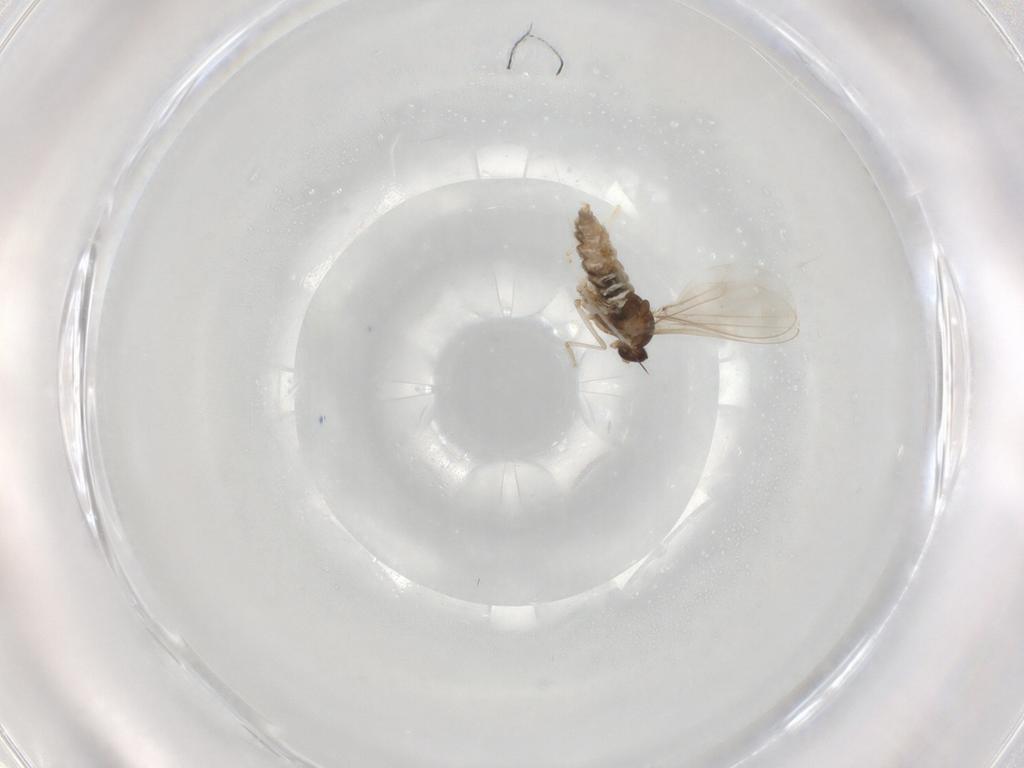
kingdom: Animalia
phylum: Arthropoda
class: Insecta
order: Diptera
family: Cecidomyiidae
